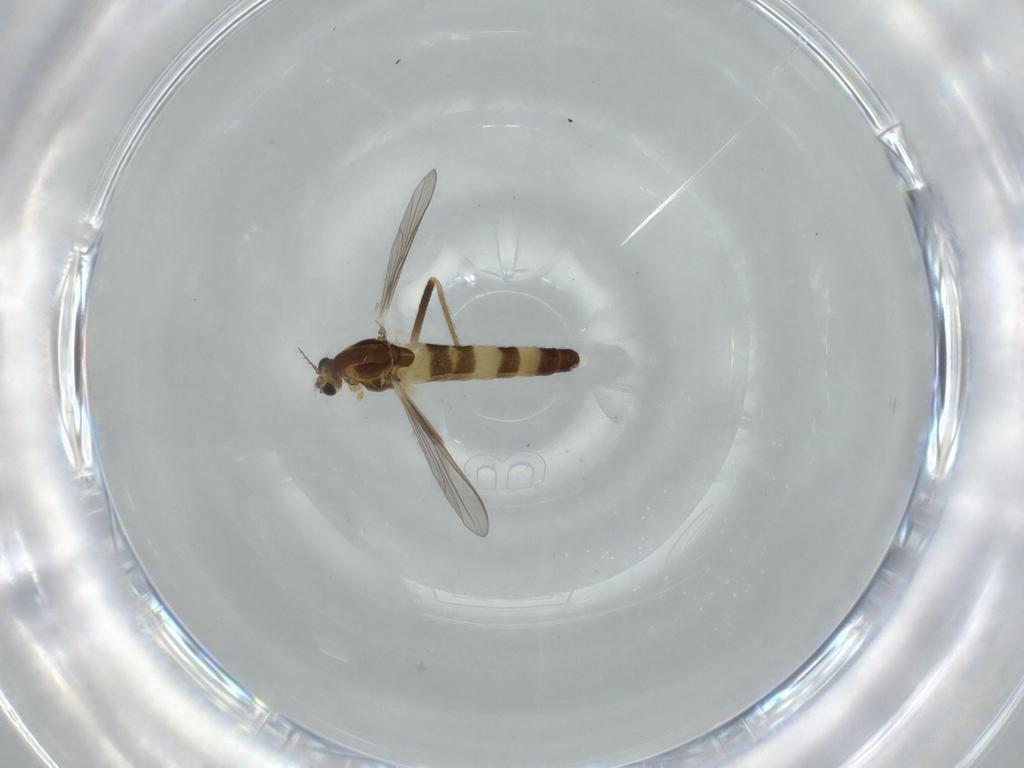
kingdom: Animalia
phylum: Arthropoda
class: Insecta
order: Diptera
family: Chironomidae
